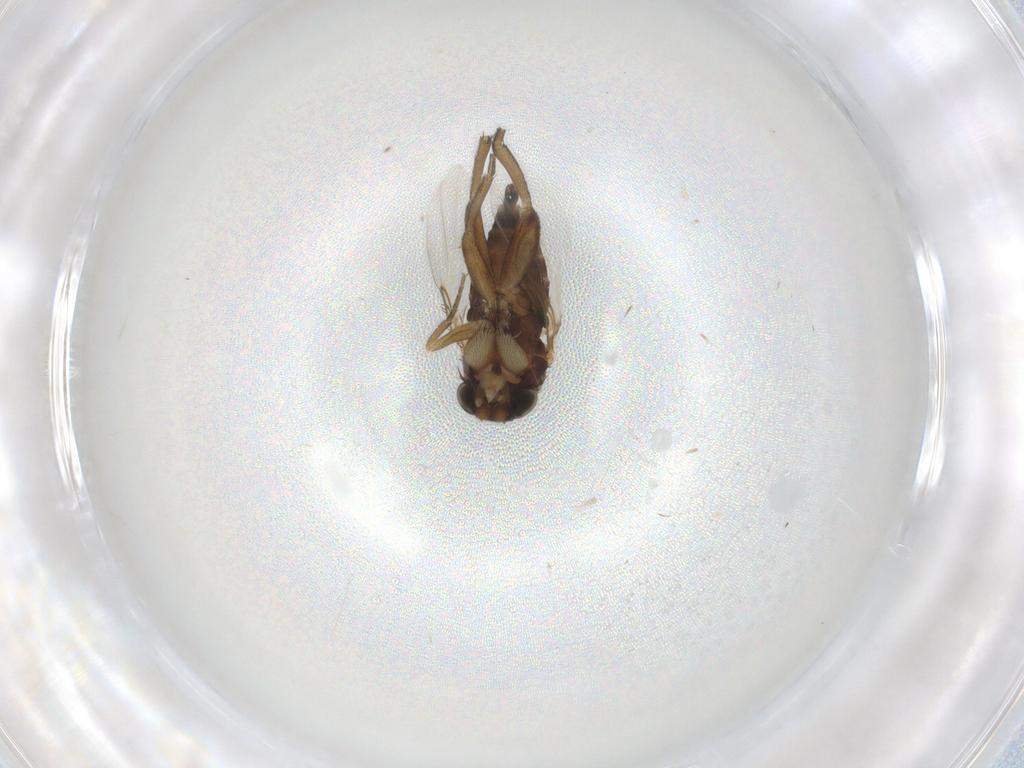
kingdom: Animalia
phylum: Arthropoda
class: Insecta
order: Diptera
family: Phoridae
